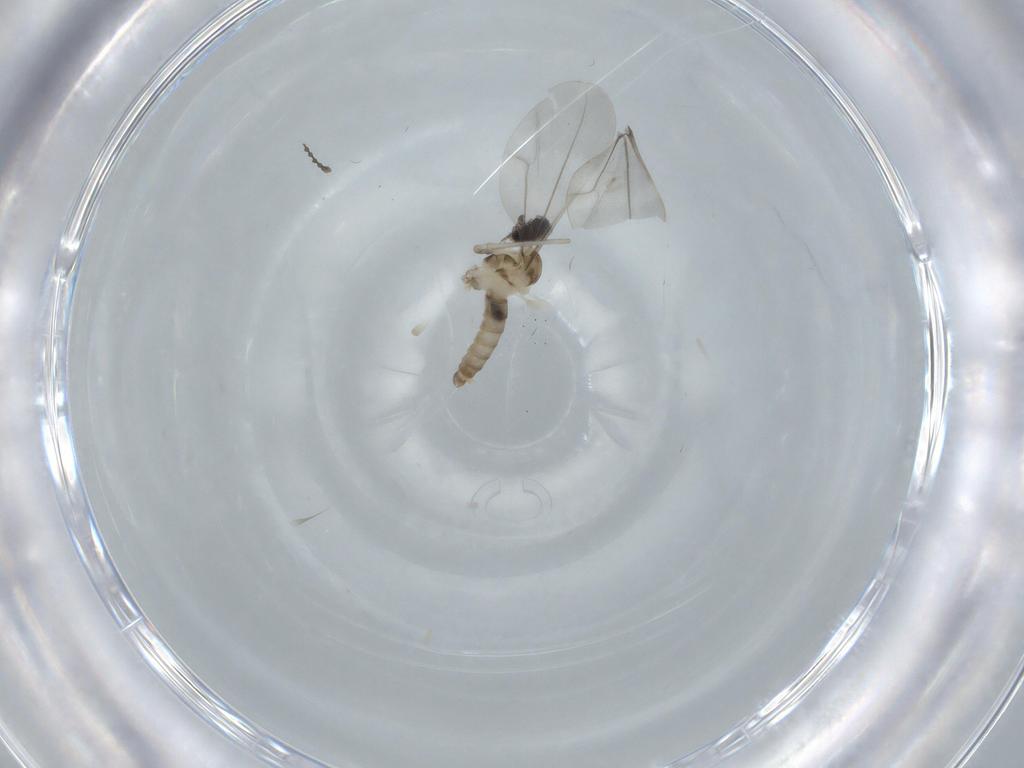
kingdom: Animalia
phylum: Arthropoda
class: Insecta
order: Diptera
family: Cecidomyiidae
